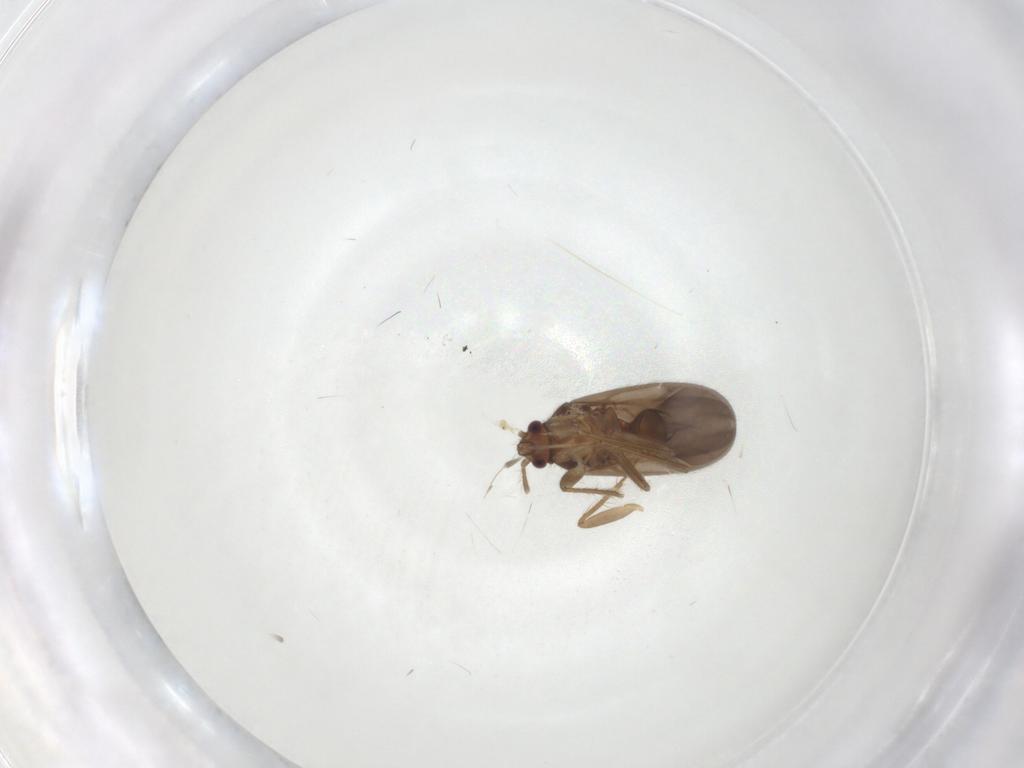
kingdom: Animalia
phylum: Arthropoda
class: Insecta
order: Hemiptera
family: Ceratocombidae
